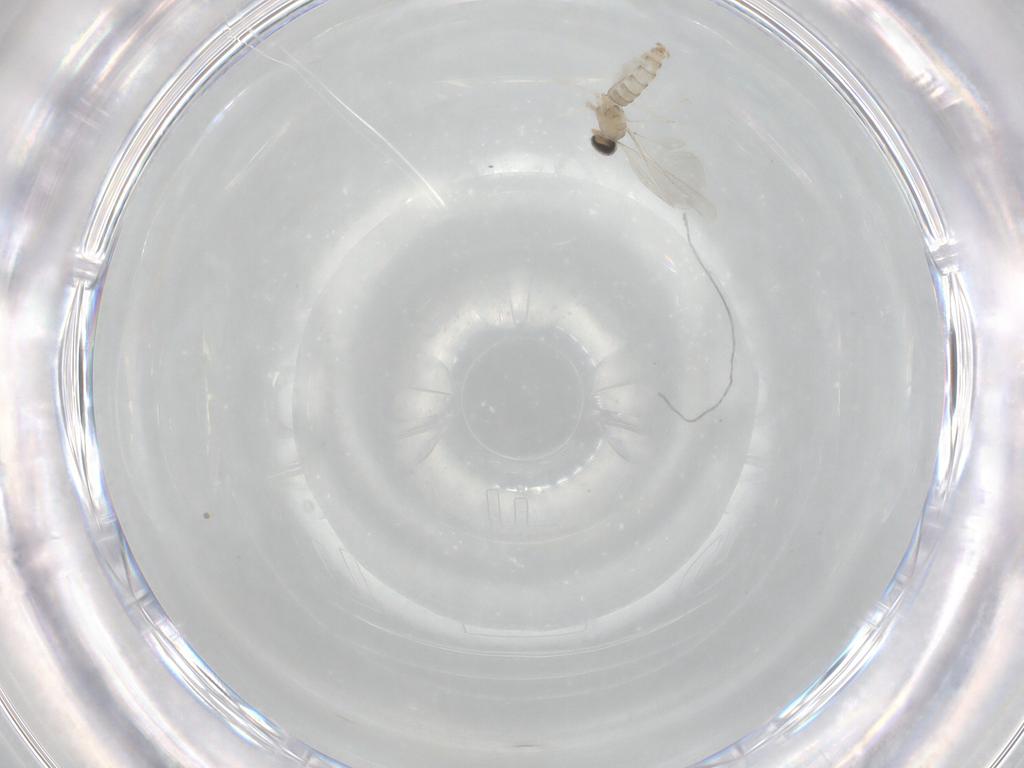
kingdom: Animalia
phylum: Arthropoda
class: Insecta
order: Diptera
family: Cecidomyiidae
